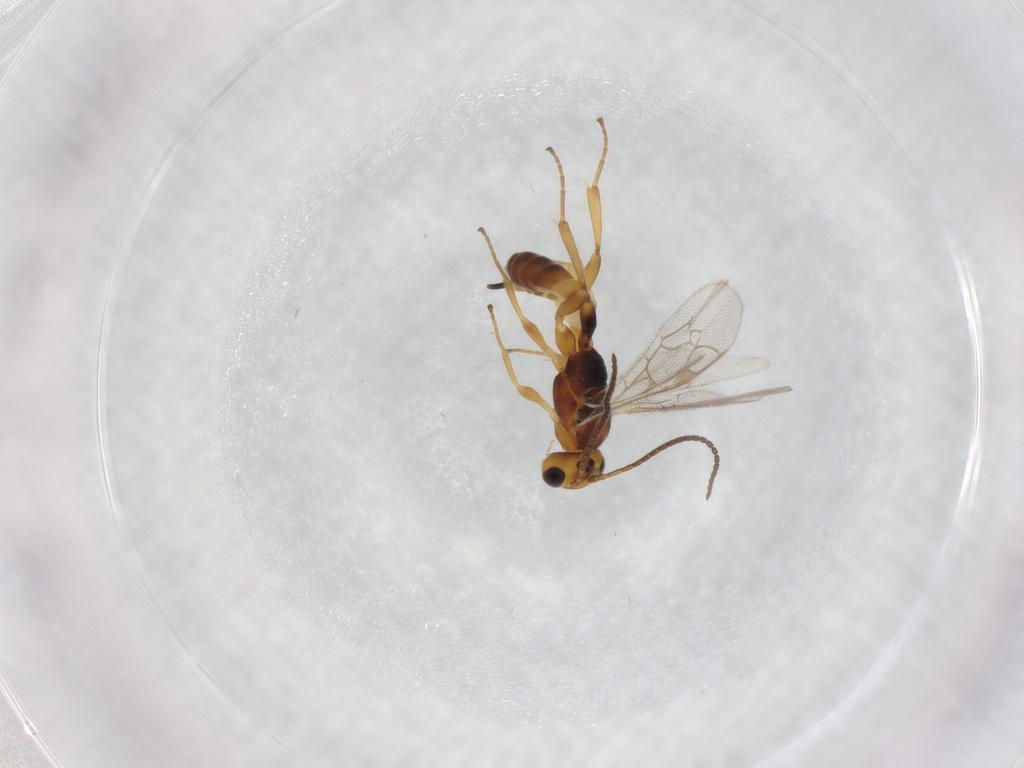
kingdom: Animalia
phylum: Arthropoda
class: Insecta
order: Hymenoptera
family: Ichneumonidae
